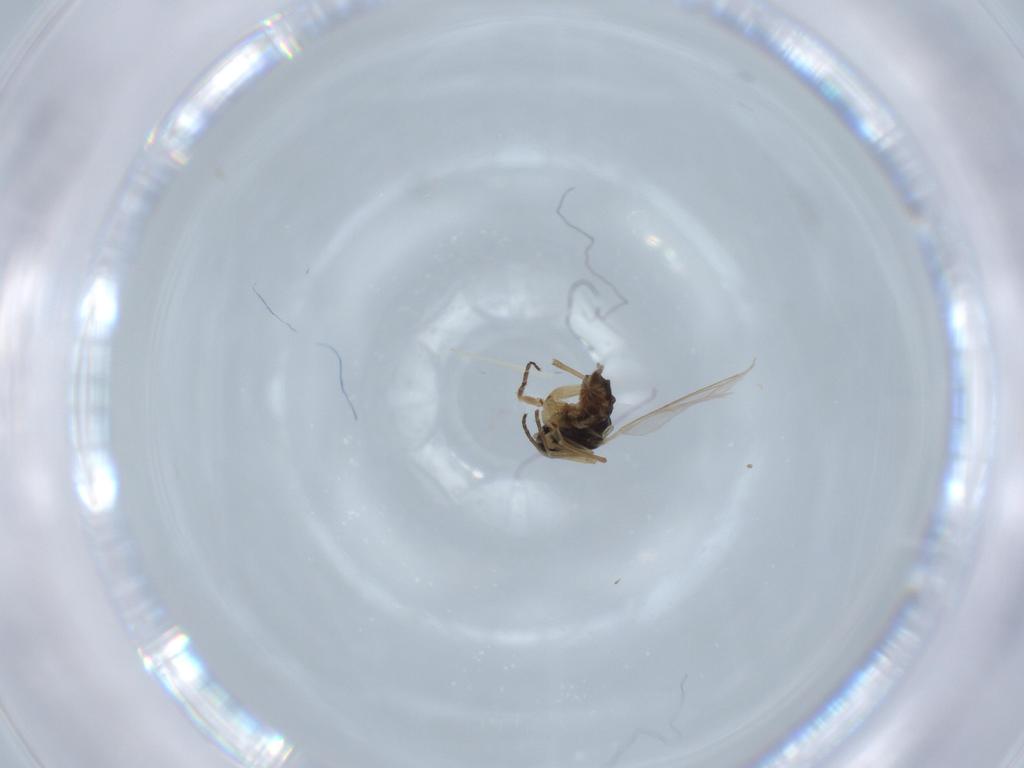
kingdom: Animalia
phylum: Arthropoda
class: Insecta
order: Diptera
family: Sciaridae
